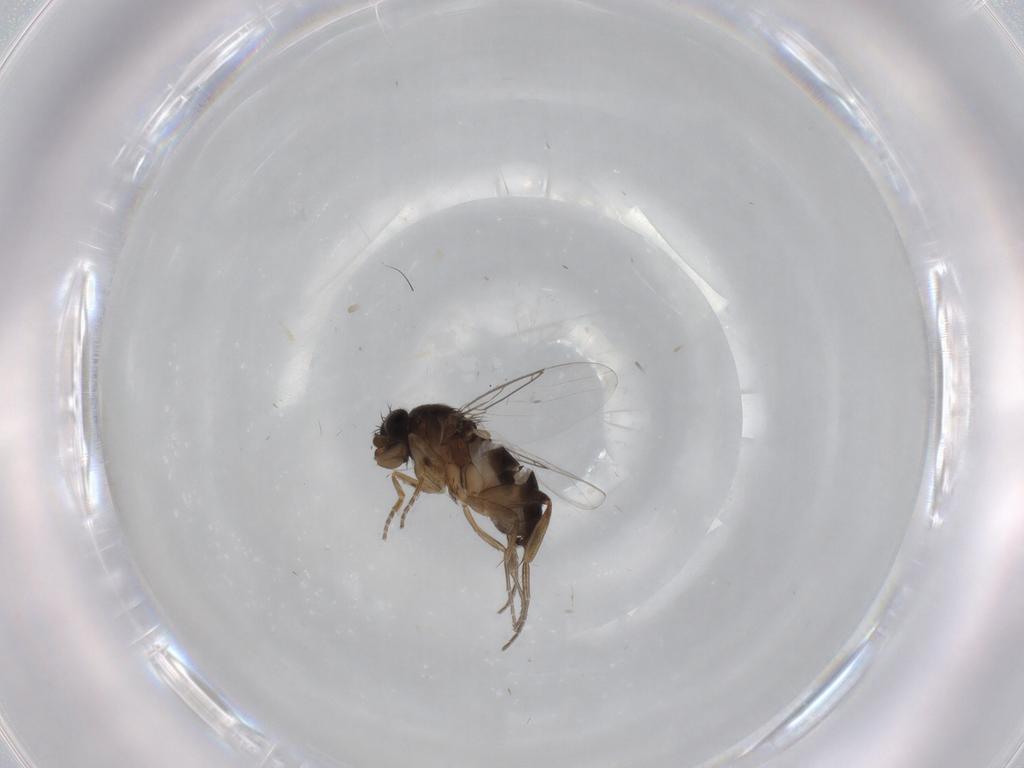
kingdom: Animalia
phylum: Arthropoda
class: Insecta
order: Diptera
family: Phoridae
